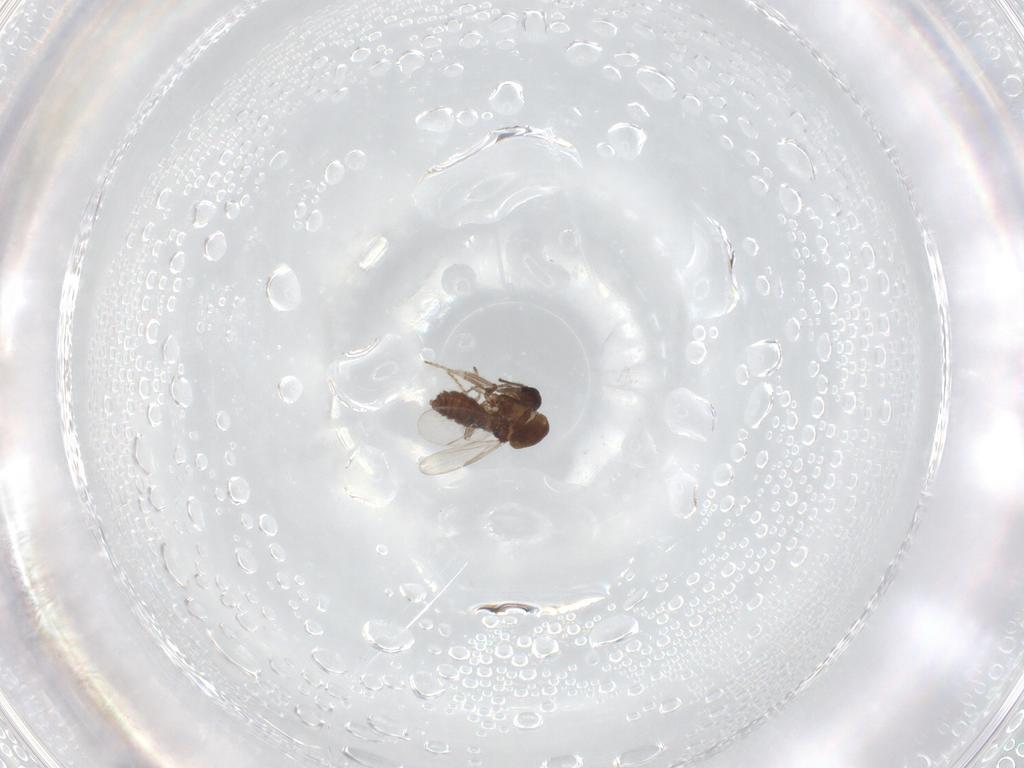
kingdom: Animalia
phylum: Arthropoda
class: Insecta
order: Diptera
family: Ceratopogonidae
